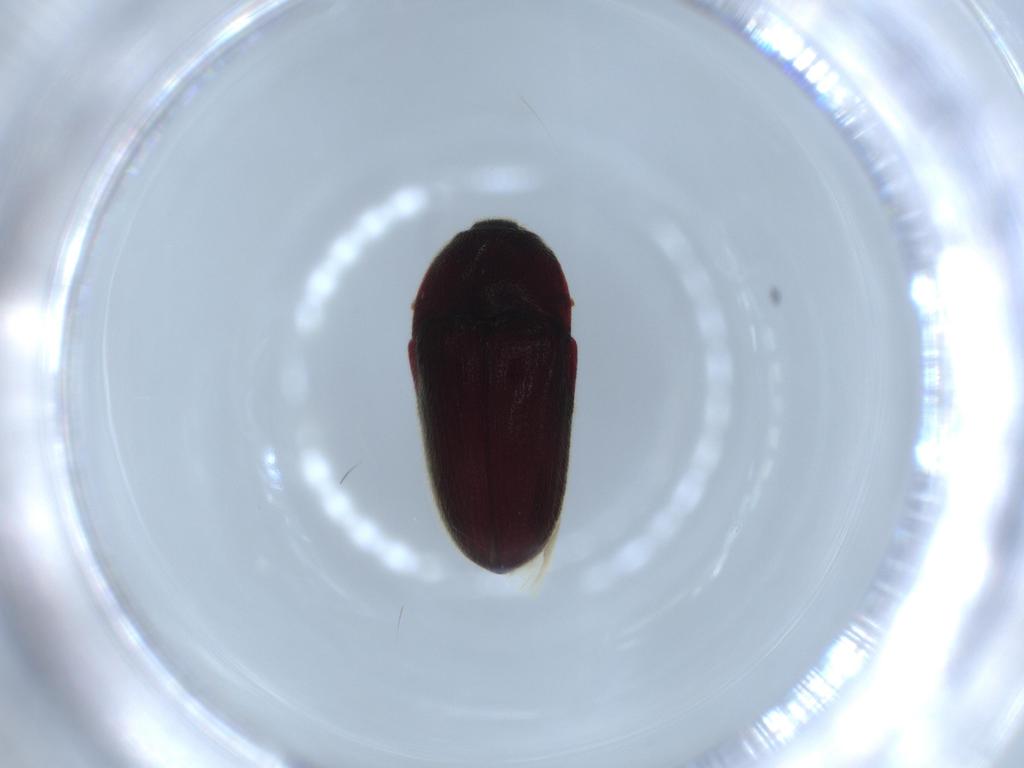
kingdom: Animalia
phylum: Arthropoda
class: Insecta
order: Coleoptera
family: Throscidae
